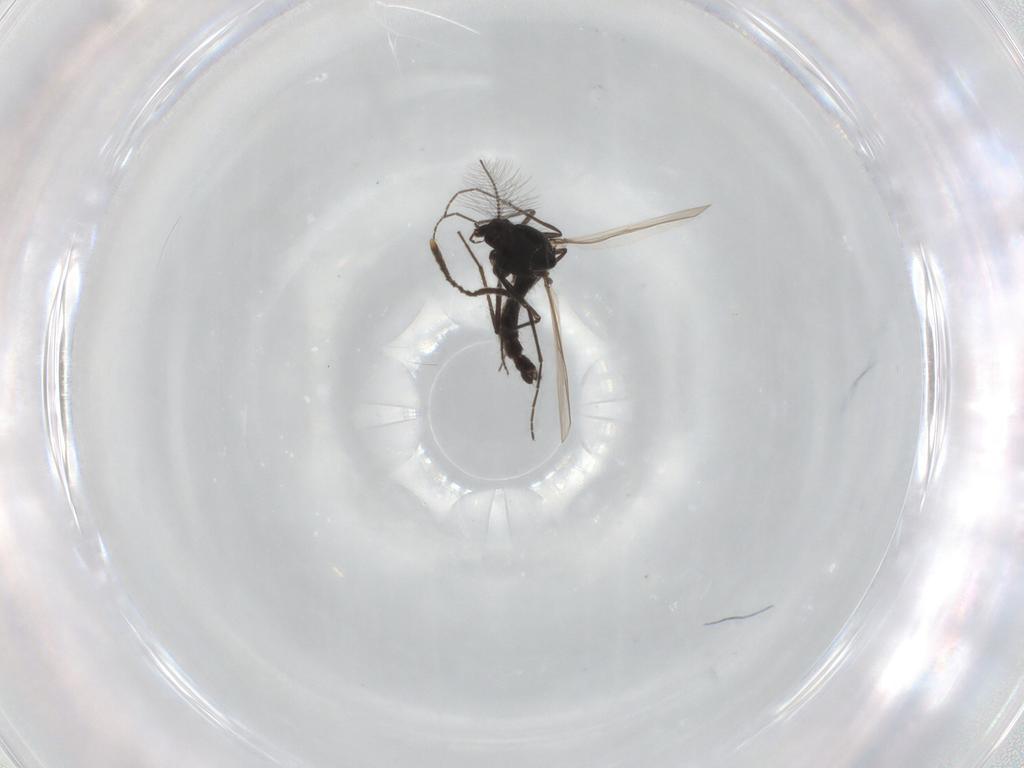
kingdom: Animalia
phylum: Arthropoda
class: Insecta
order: Diptera
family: Chironomidae
